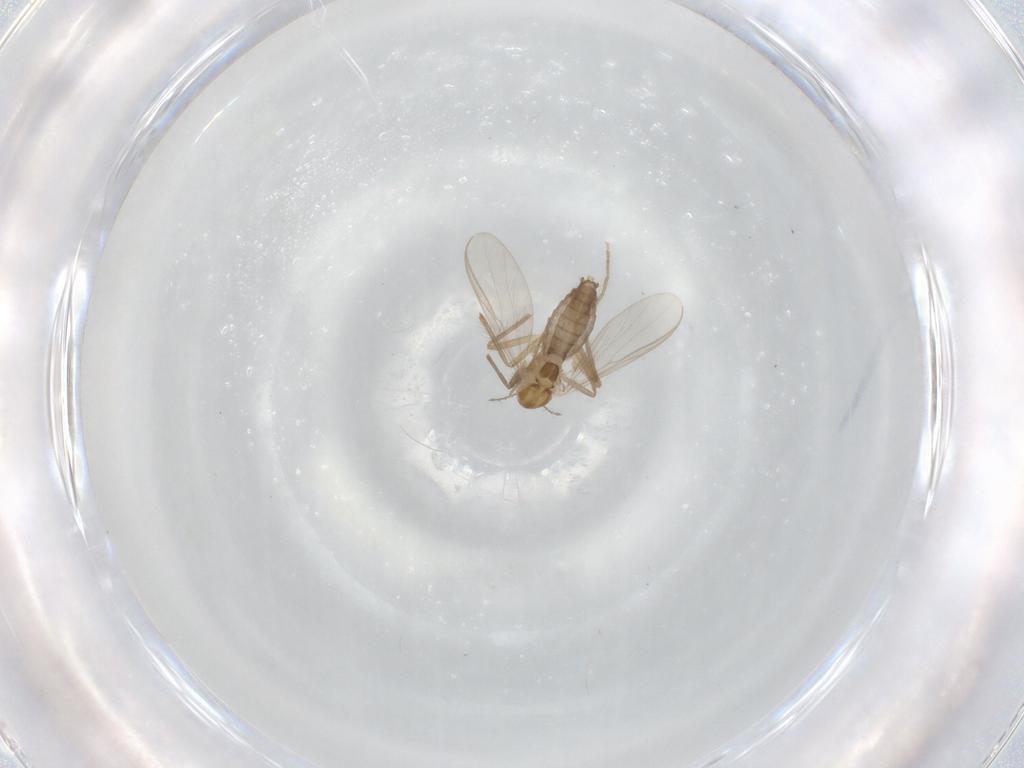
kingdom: Animalia
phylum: Arthropoda
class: Insecta
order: Diptera
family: Chironomidae
